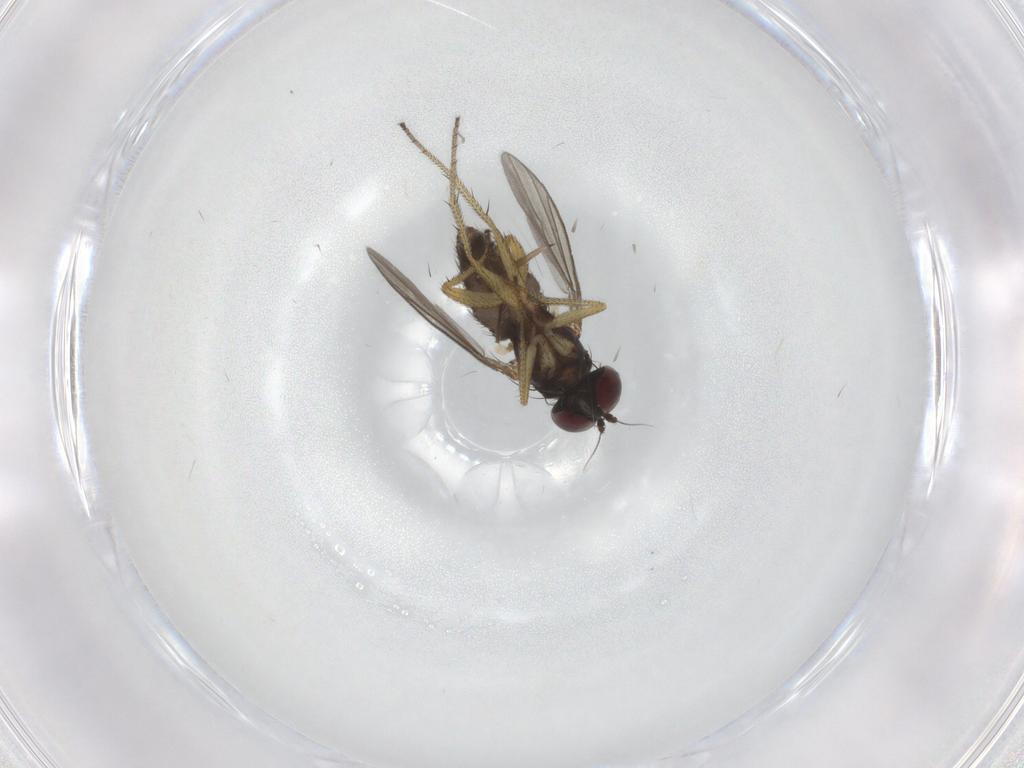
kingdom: Animalia
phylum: Arthropoda
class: Insecta
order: Diptera
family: Dolichopodidae
